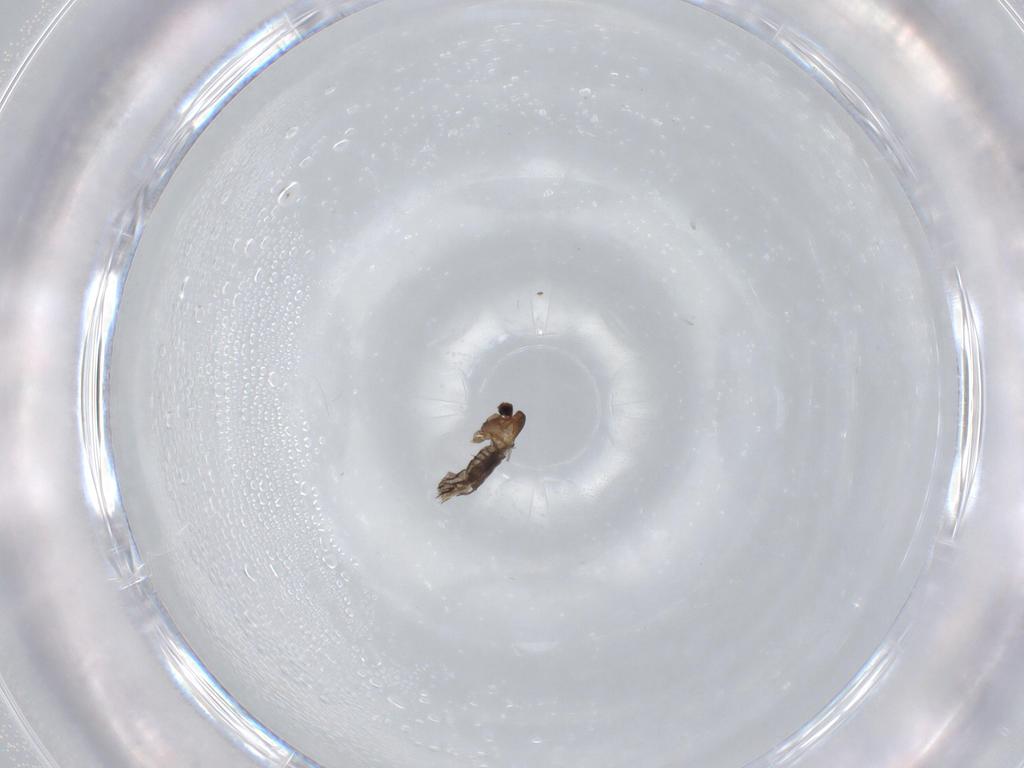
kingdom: Animalia
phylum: Arthropoda
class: Insecta
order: Diptera
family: Chironomidae
